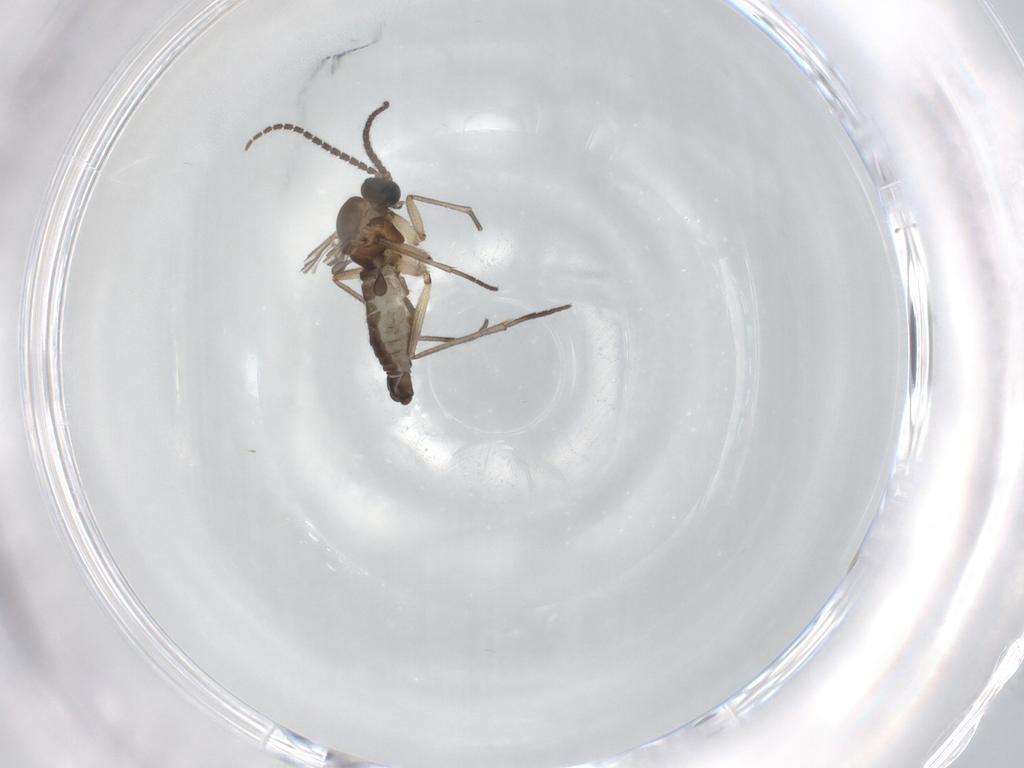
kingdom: Animalia
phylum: Arthropoda
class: Insecta
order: Diptera
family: Sciaridae
